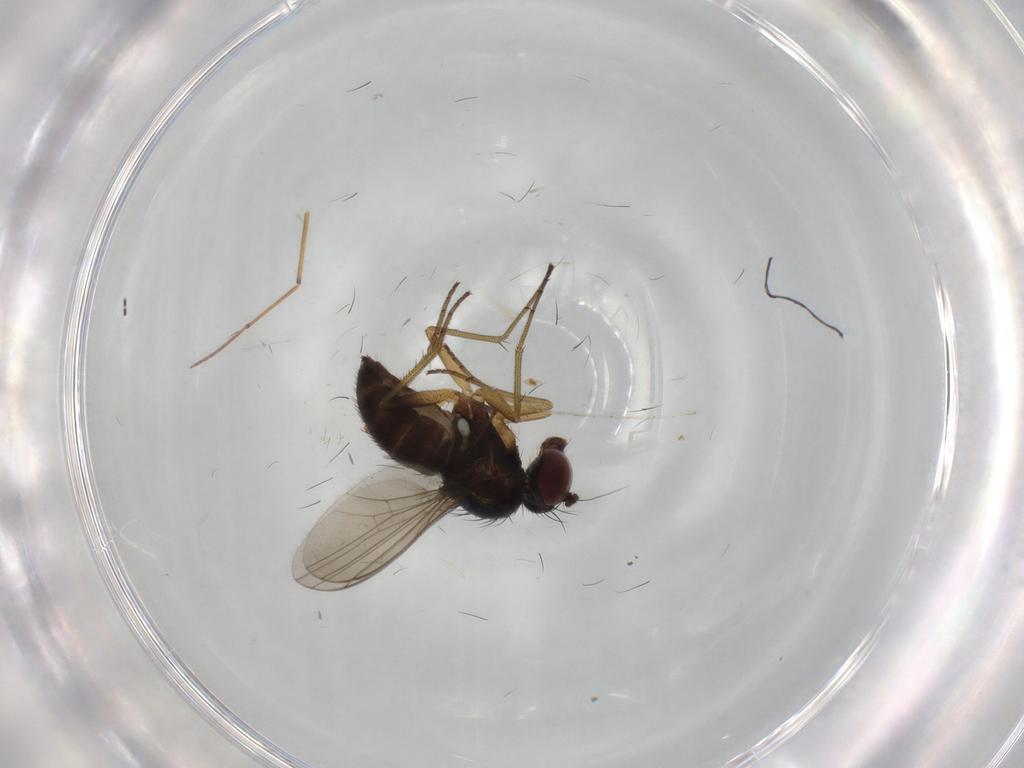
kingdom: Animalia
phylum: Arthropoda
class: Insecta
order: Diptera
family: Dolichopodidae
